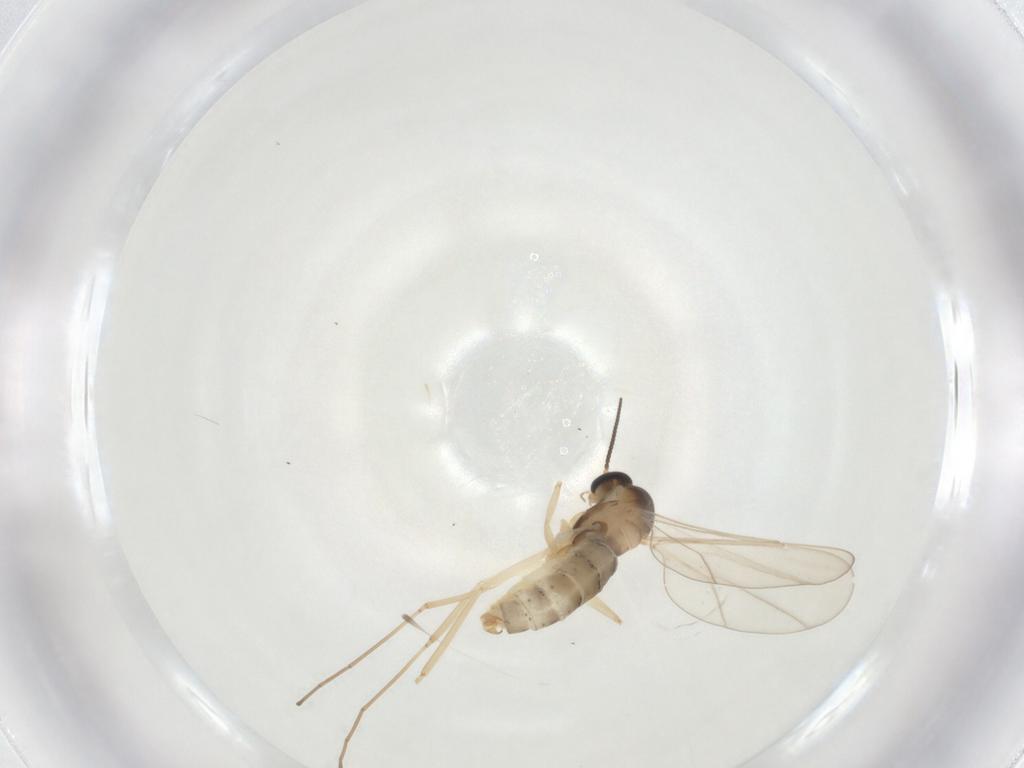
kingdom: Animalia
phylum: Arthropoda
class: Insecta
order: Diptera
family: Cecidomyiidae
